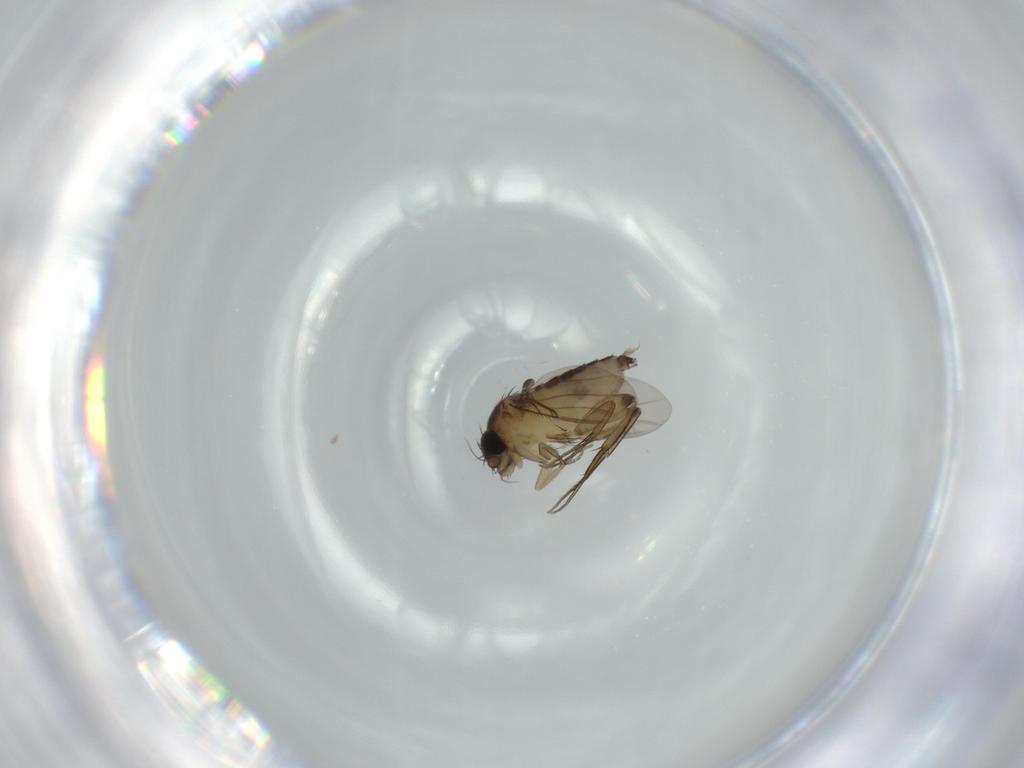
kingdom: Animalia
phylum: Arthropoda
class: Insecta
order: Diptera
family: Phoridae
